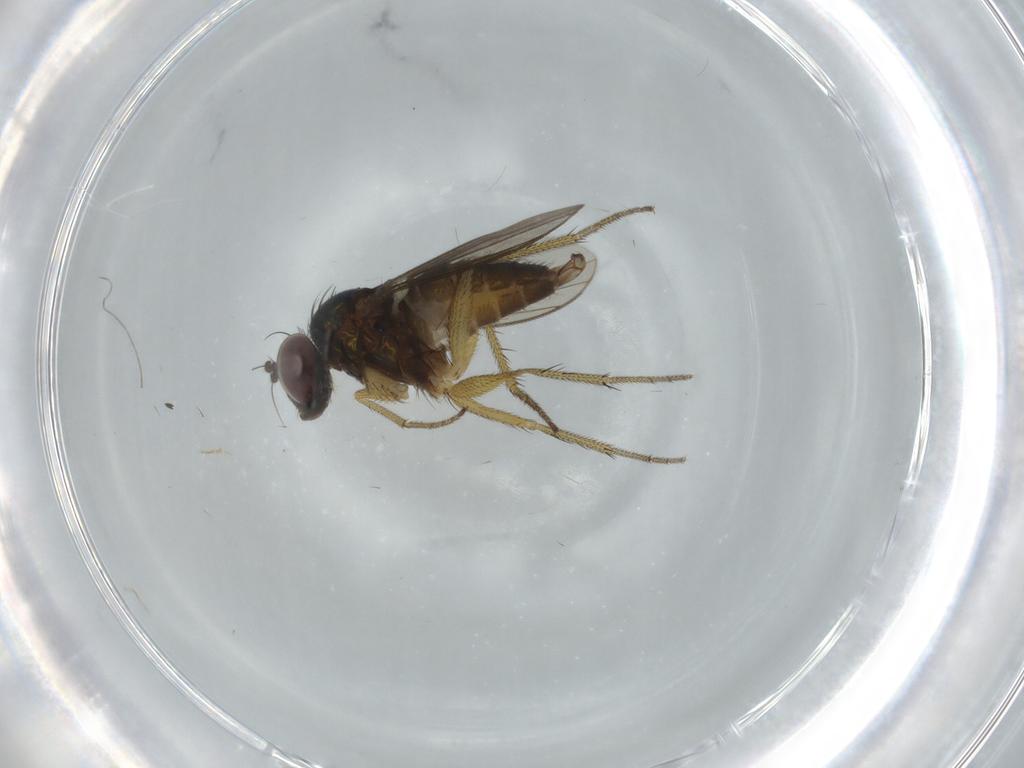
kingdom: Animalia
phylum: Arthropoda
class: Insecta
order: Diptera
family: Dolichopodidae
